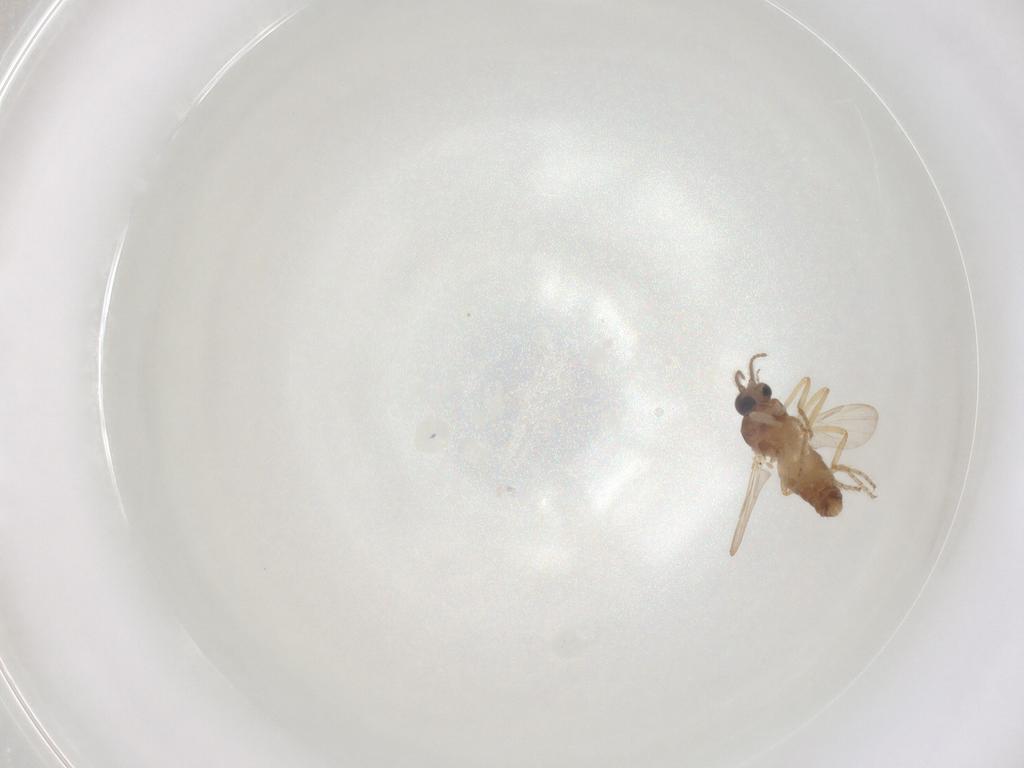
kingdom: Animalia
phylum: Arthropoda
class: Insecta
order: Diptera
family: Ceratopogonidae
